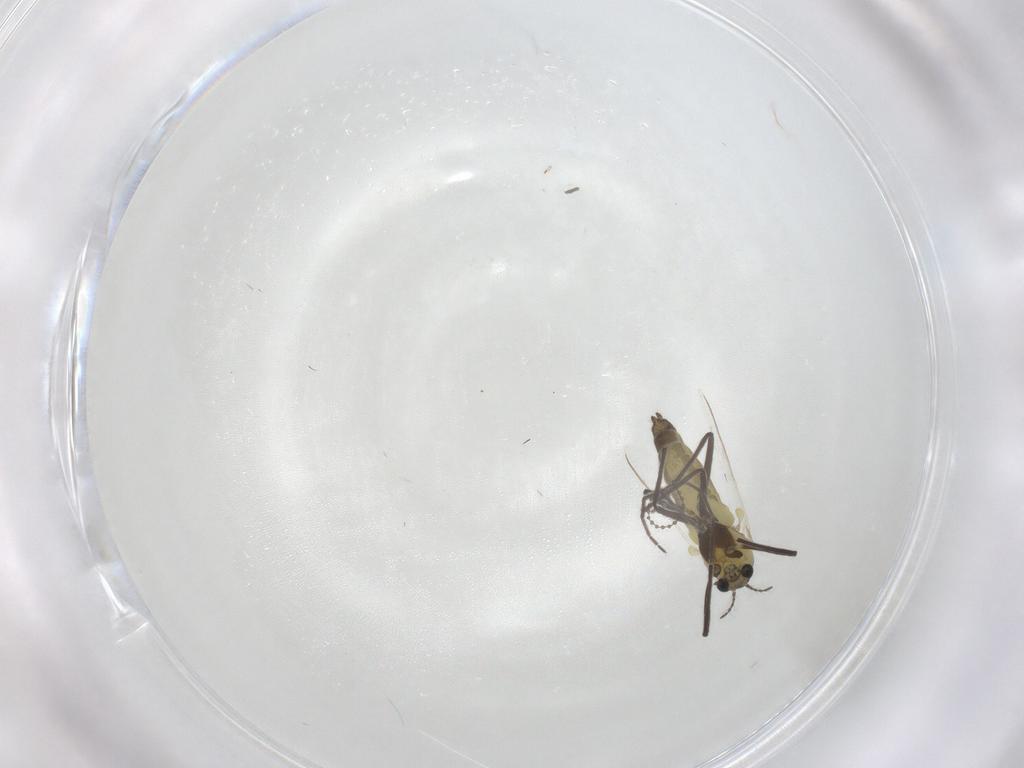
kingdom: Animalia
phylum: Arthropoda
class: Insecta
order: Diptera
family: Chironomidae
